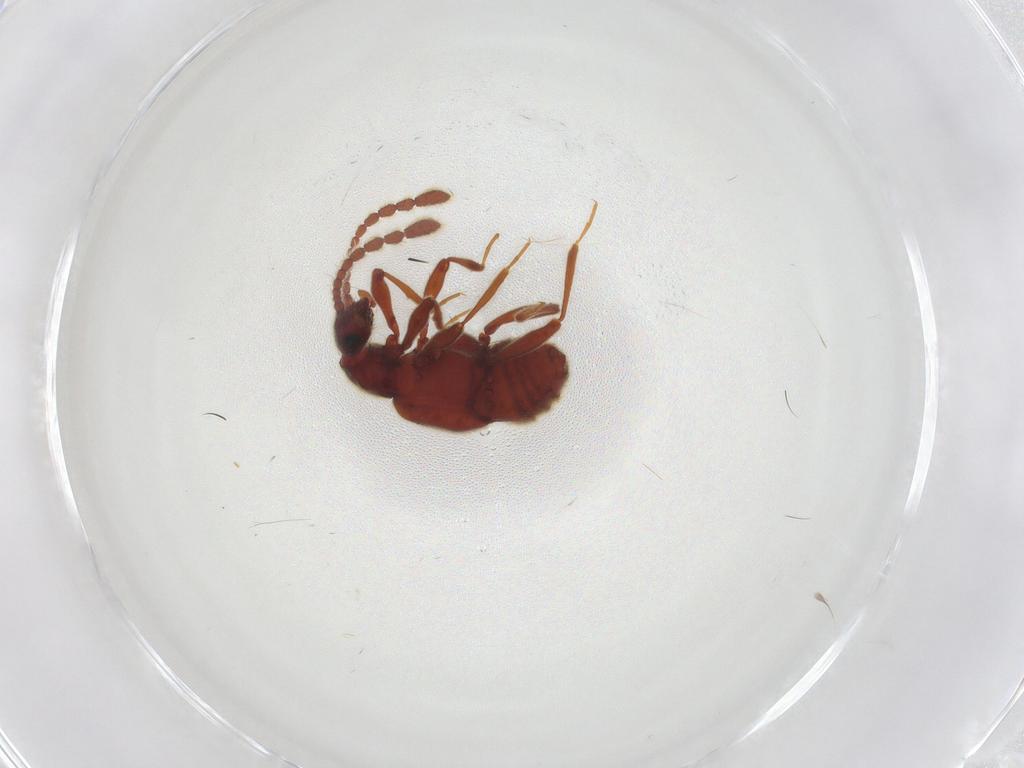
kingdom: Animalia
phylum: Arthropoda
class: Insecta
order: Coleoptera
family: Staphylinidae
